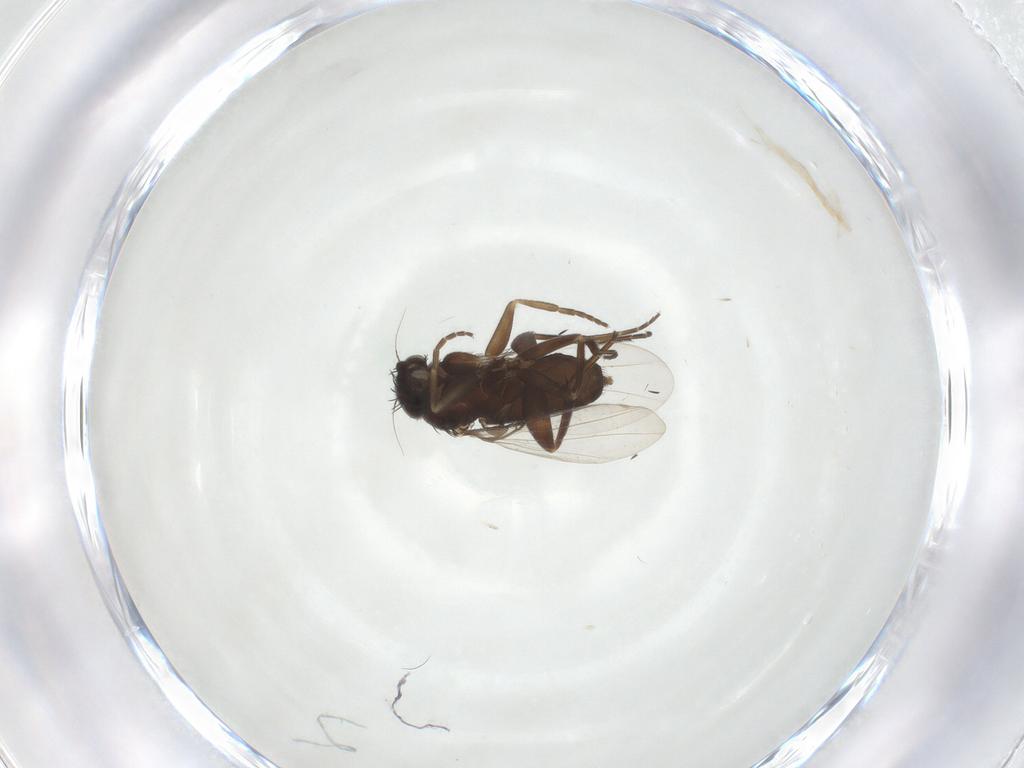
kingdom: Animalia
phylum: Arthropoda
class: Insecta
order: Diptera
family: Phoridae
